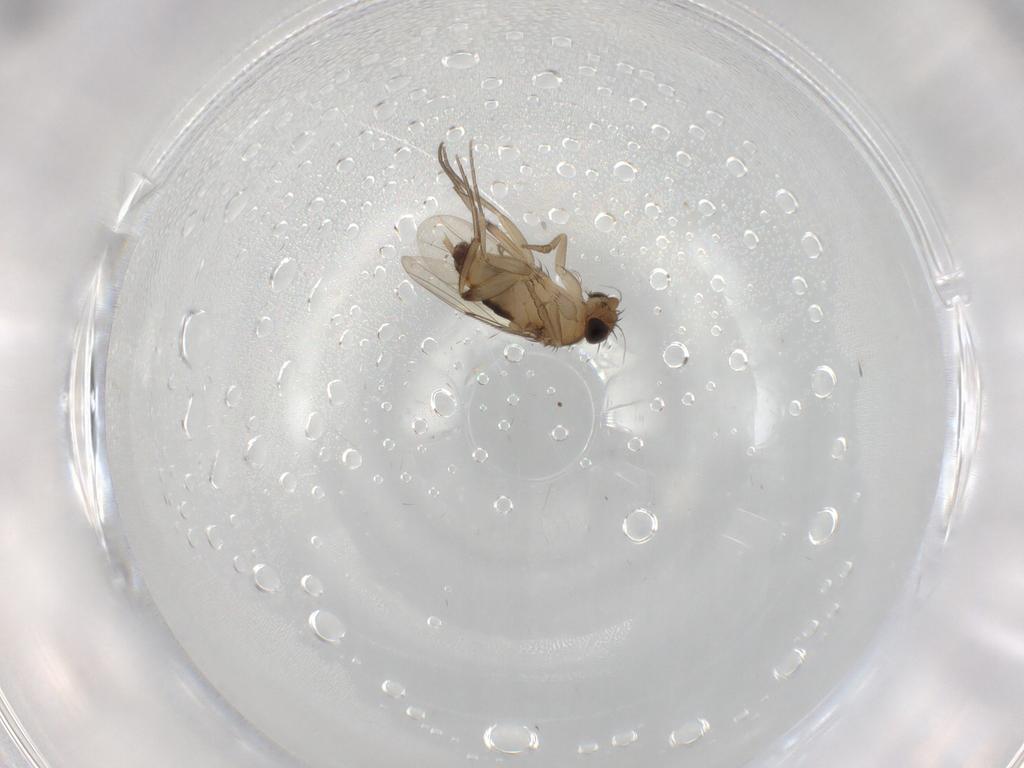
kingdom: Animalia
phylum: Arthropoda
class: Insecta
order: Diptera
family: Phoridae
